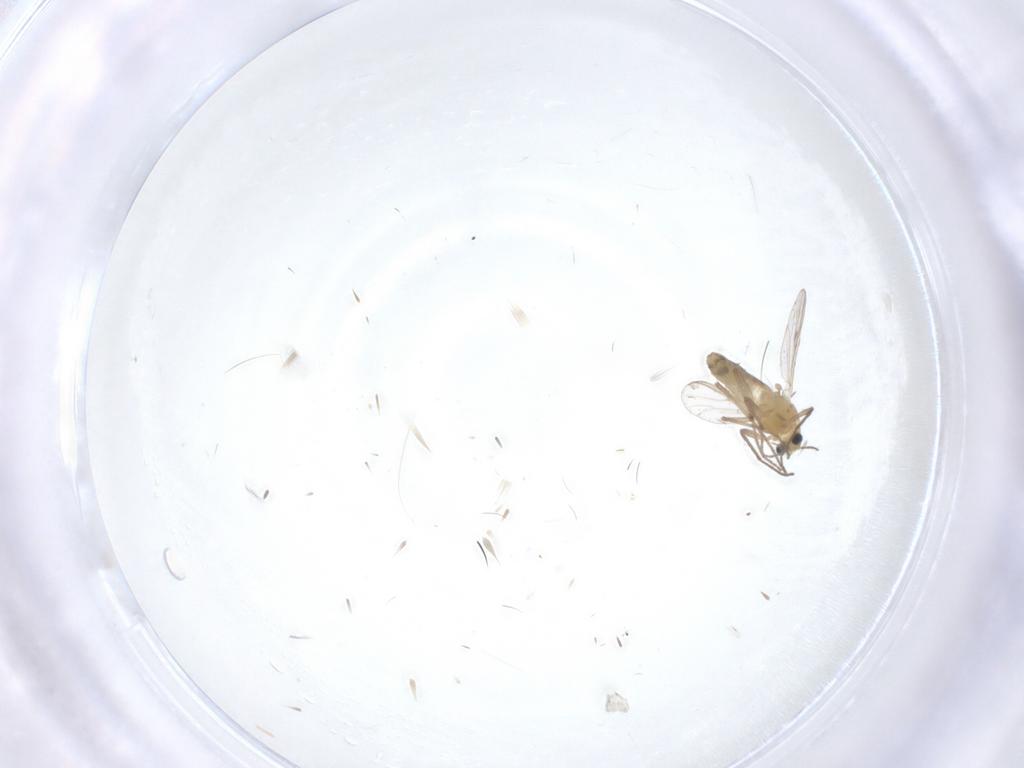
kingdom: Animalia
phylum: Arthropoda
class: Insecta
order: Diptera
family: Chironomidae
